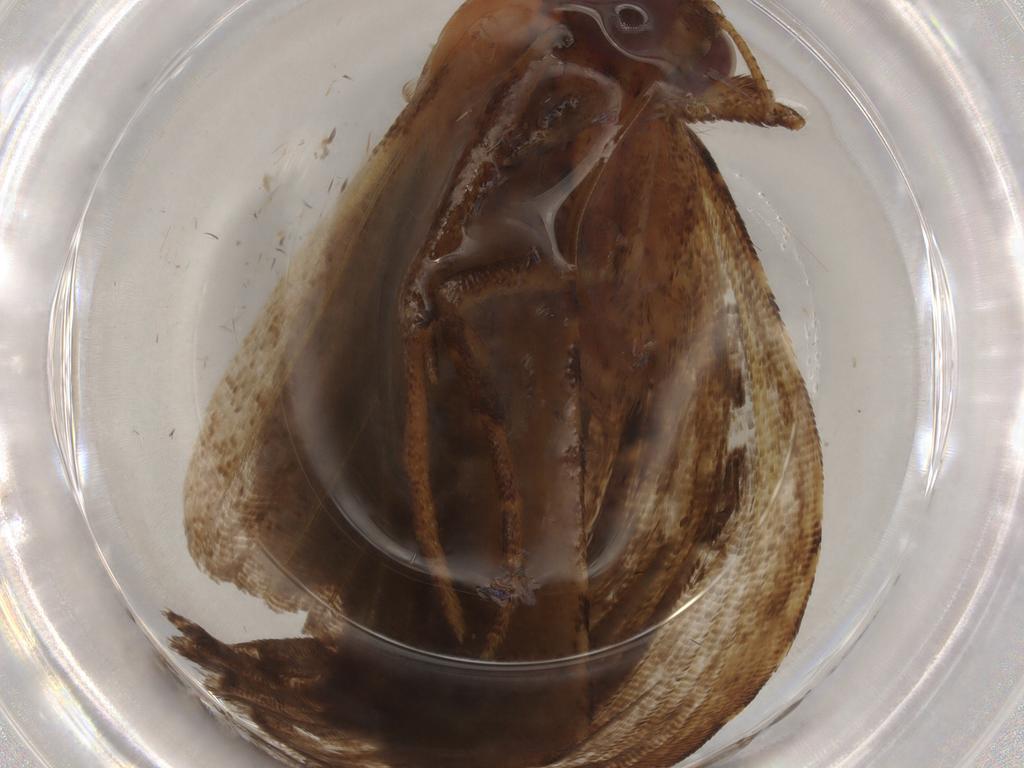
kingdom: Animalia
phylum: Arthropoda
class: Insecta
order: Lepidoptera
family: Erebidae
